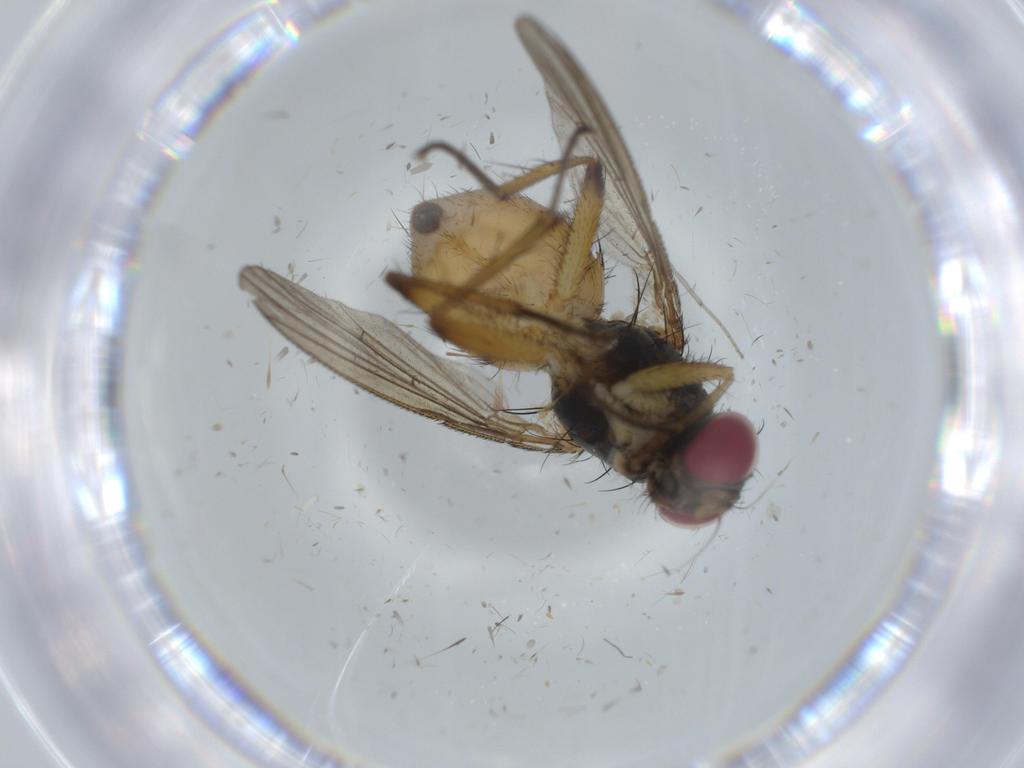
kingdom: Animalia
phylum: Arthropoda
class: Insecta
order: Diptera
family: Chironomidae
